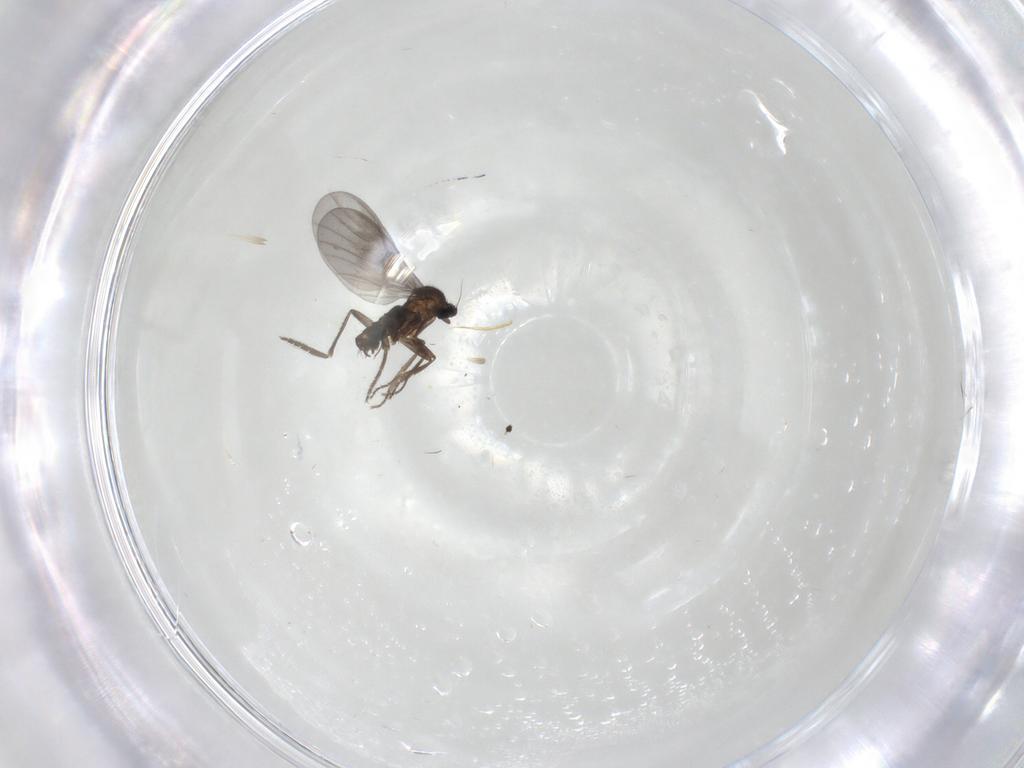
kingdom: Animalia
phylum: Arthropoda
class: Insecta
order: Diptera
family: Phoridae
